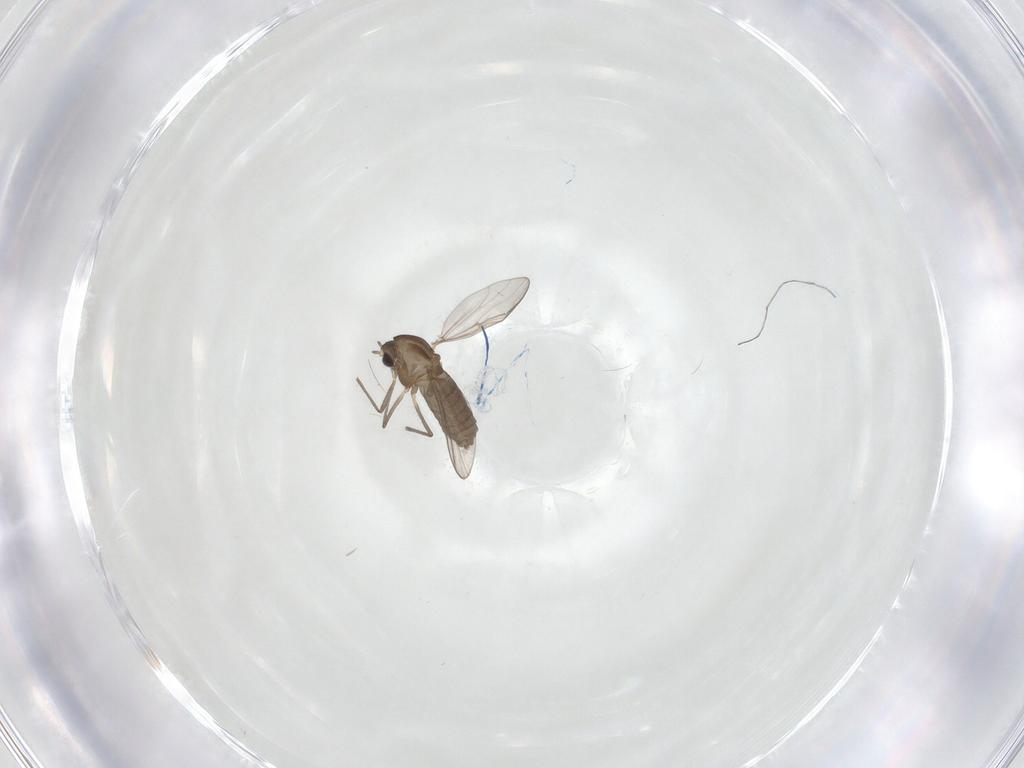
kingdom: Animalia
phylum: Arthropoda
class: Insecta
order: Diptera
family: Chironomidae
